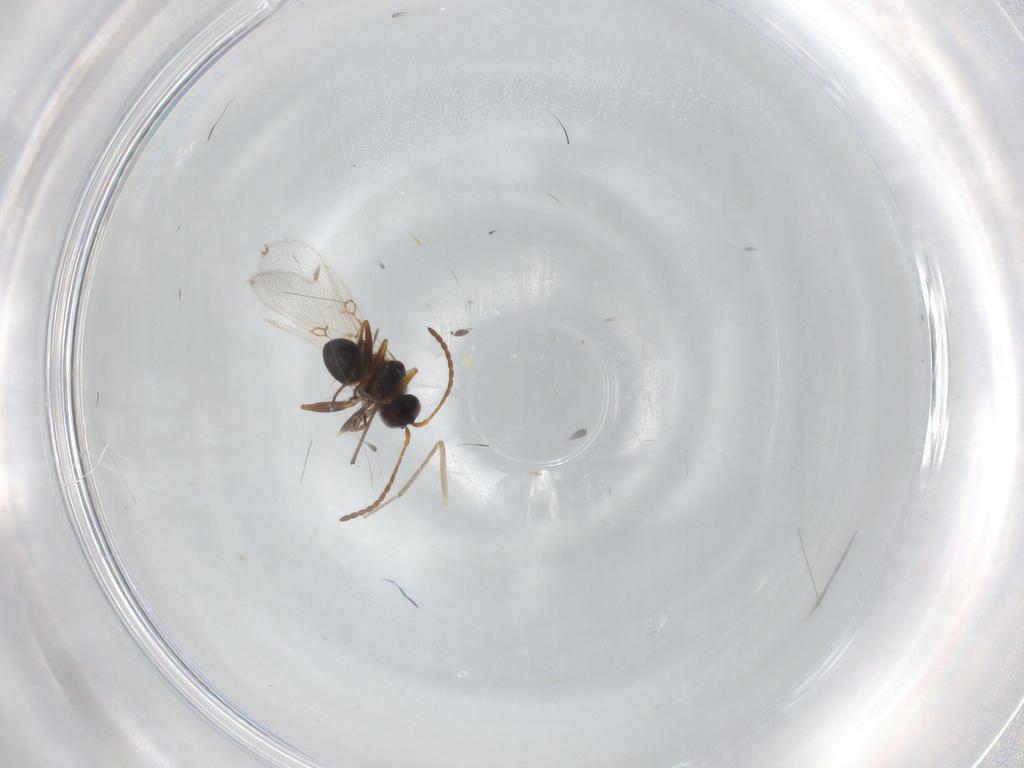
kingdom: Animalia
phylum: Arthropoda
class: Insecta
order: Hymenoptera
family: Figitidae
